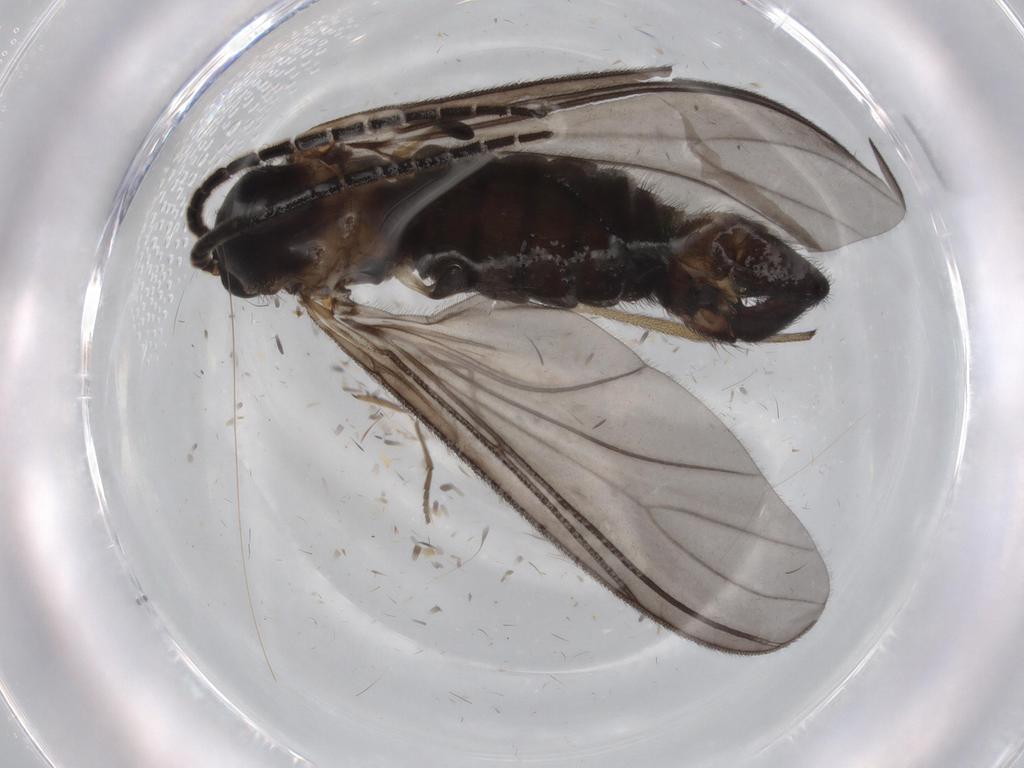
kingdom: Animalia
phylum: Arthropoda
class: Insecta
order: Diptera
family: Chironomidae
